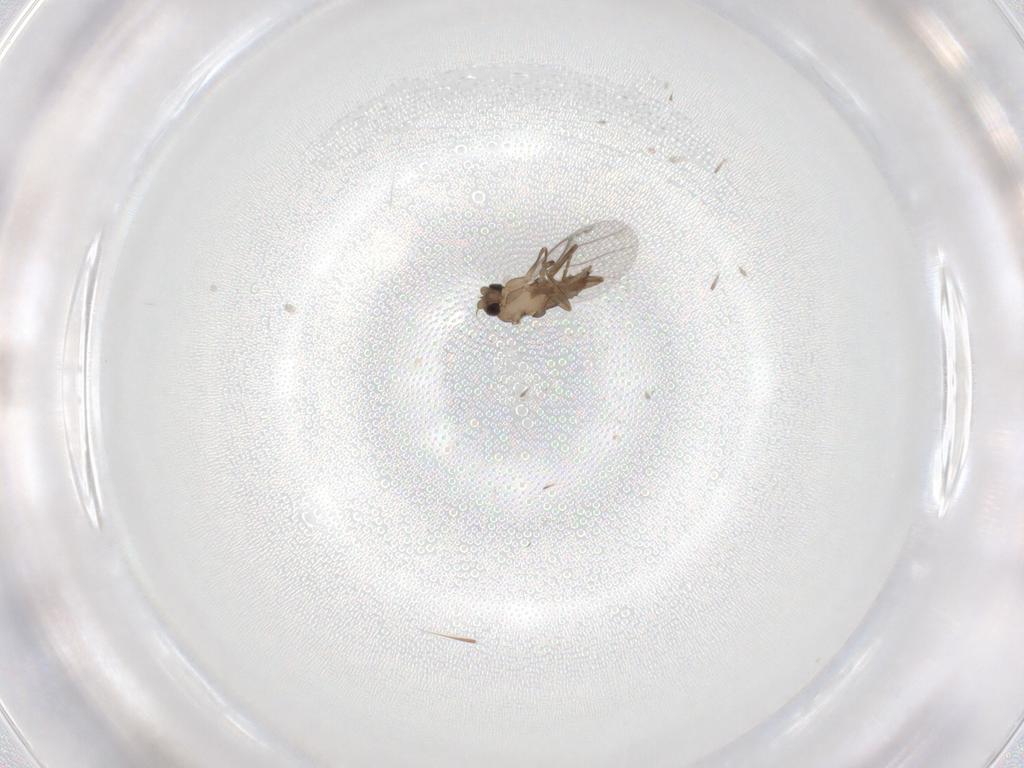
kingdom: Animalia
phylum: Arthropoda
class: Insecta
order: Diptera
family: Limoniidae
